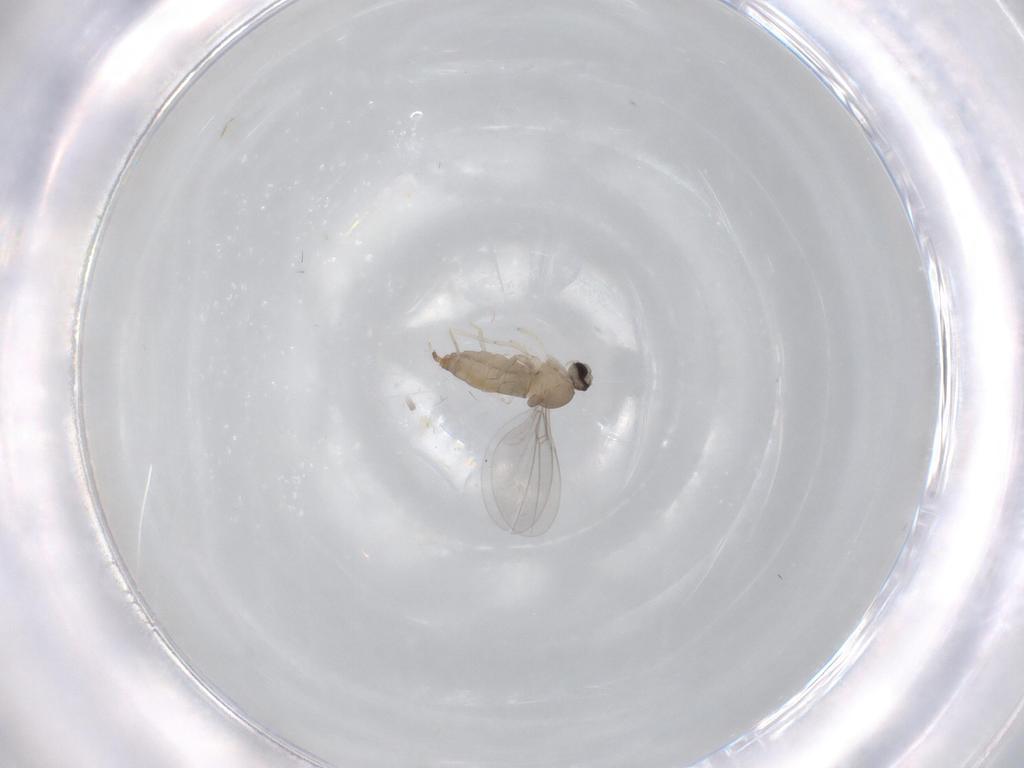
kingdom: Animalia
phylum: Arthropoda
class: Insecta
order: Diptera
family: Cecidomyiidae
